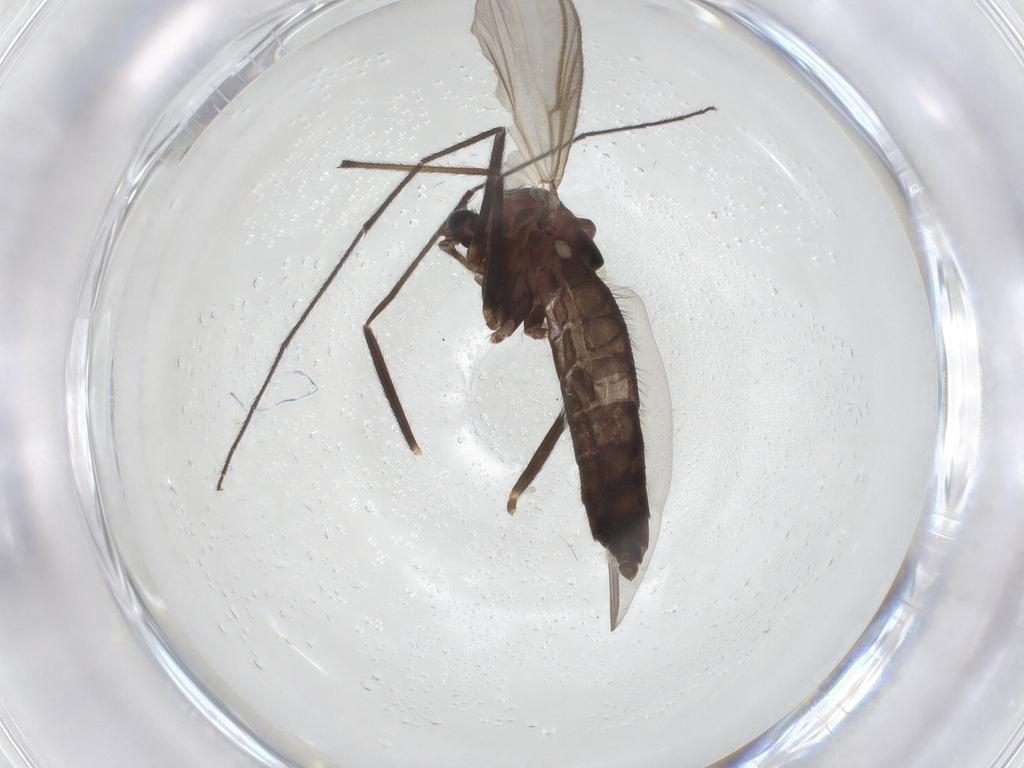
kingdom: Animalia
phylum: Arthropoda
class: Insecta
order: Diptera
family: Chironomidae
